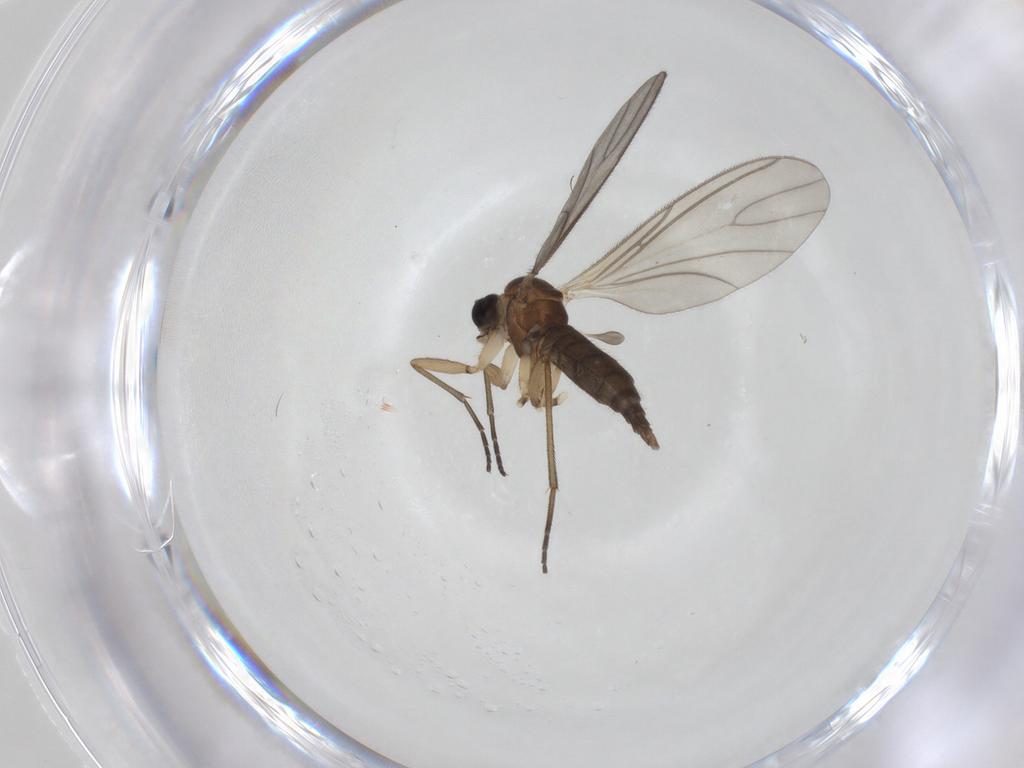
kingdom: Animalia
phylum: Arthropoda
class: Insecta
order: Diptera
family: Sciaridae
